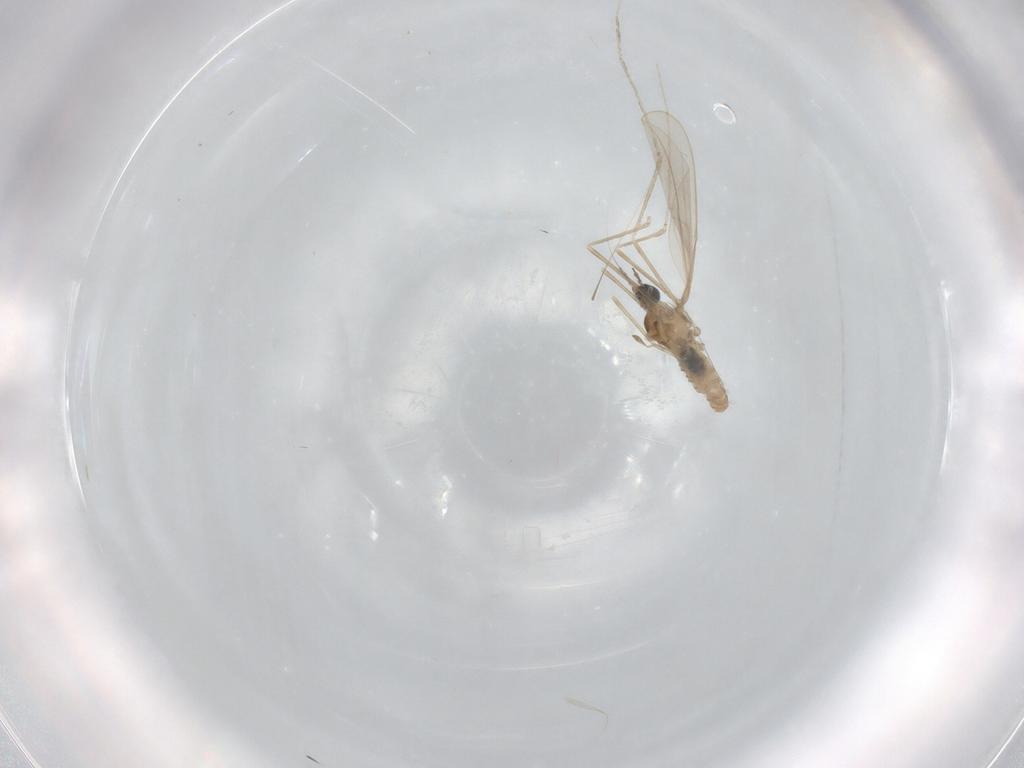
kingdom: Animalia
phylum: Arthropoda
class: Insecta
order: Diptera
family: Cecidomyiidae
